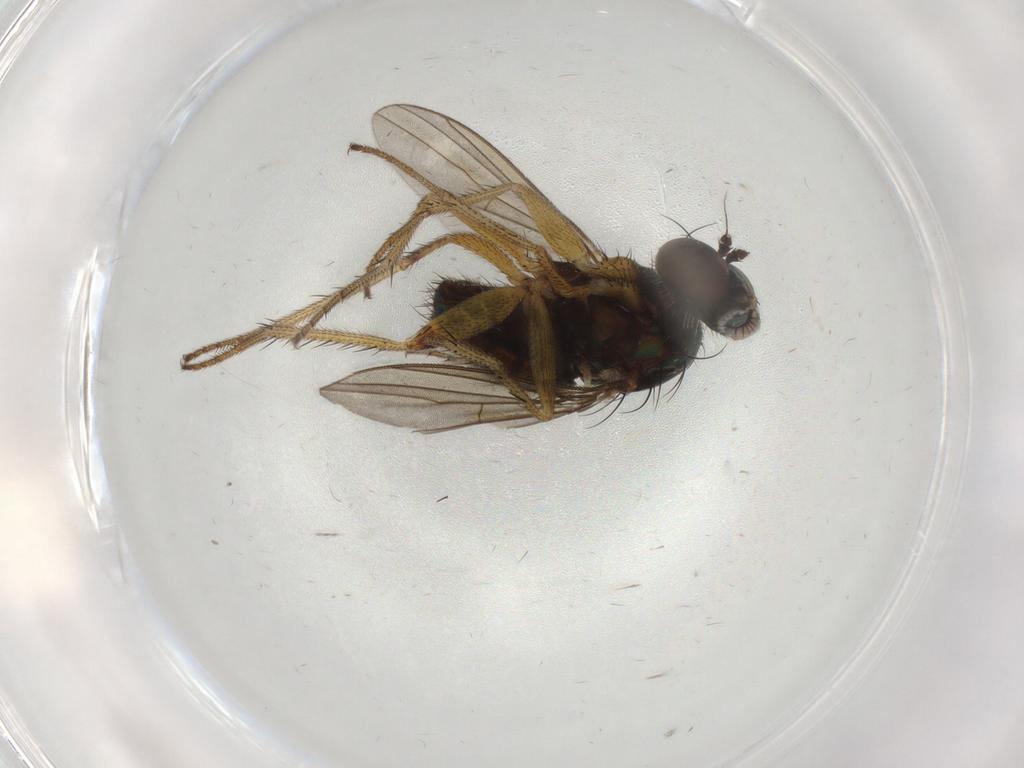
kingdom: Animalia
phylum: Arthropoda
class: Insecta
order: Diptera
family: Dolichopodidae
